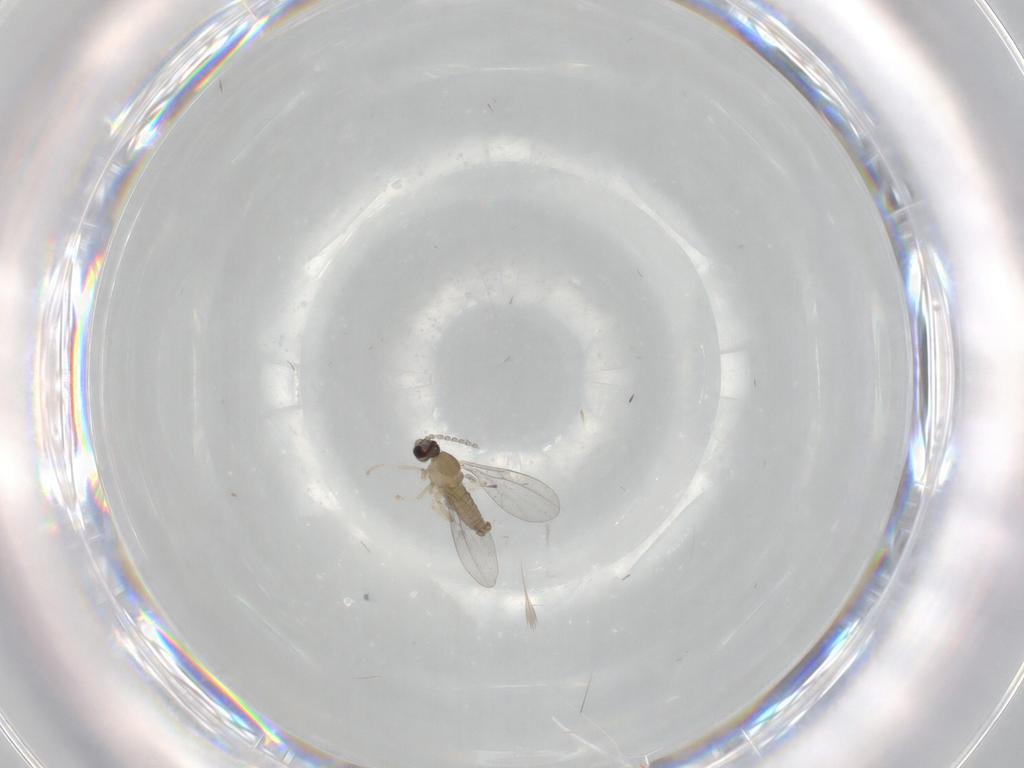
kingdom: Animalia
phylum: Arthropoda
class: Insecta
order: Diptera
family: Cecidomyiidae
